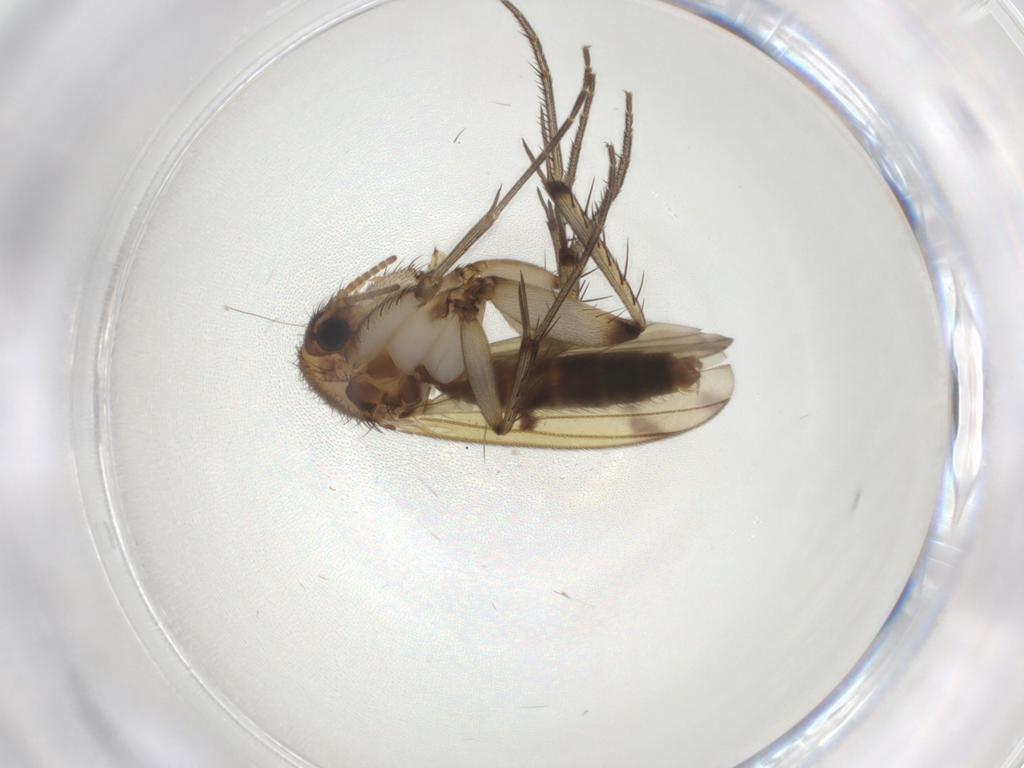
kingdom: Animalia
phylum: Arthropoda
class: Insecta
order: Diptera
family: Mycetophilidae
